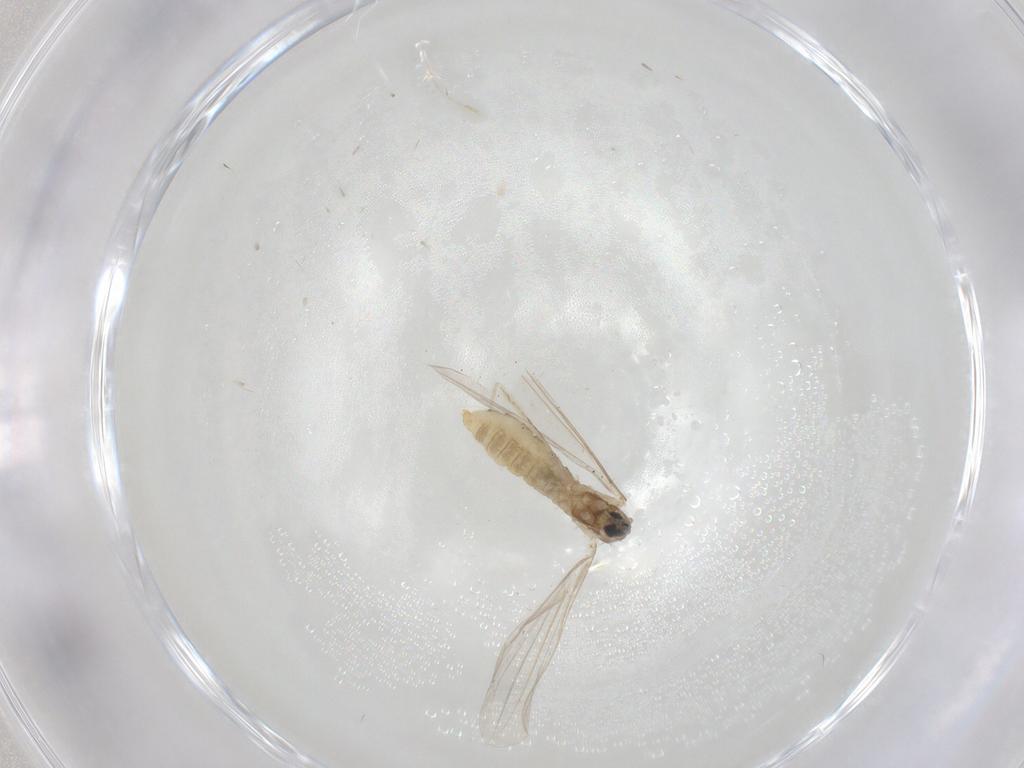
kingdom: Animalia
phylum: Arthropoda
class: Insecta
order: Diptera
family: Cecidomyiidae
